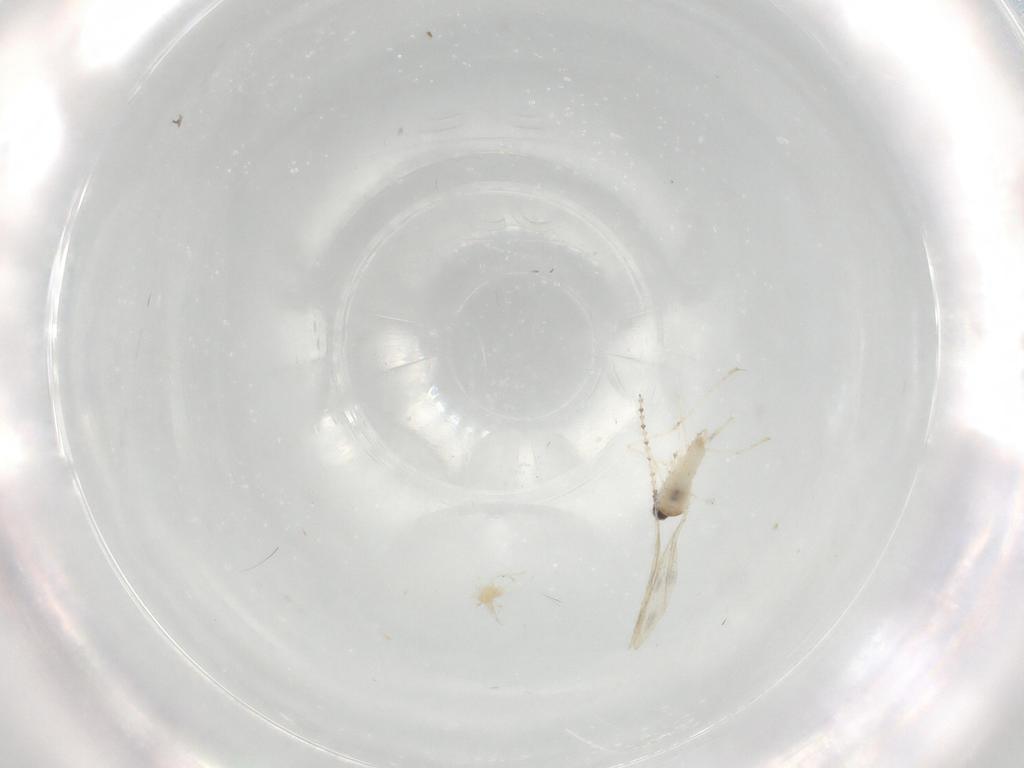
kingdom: Animalia
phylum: Arthropoda
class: Insecta
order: Diptera
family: Cecidomyiidae
